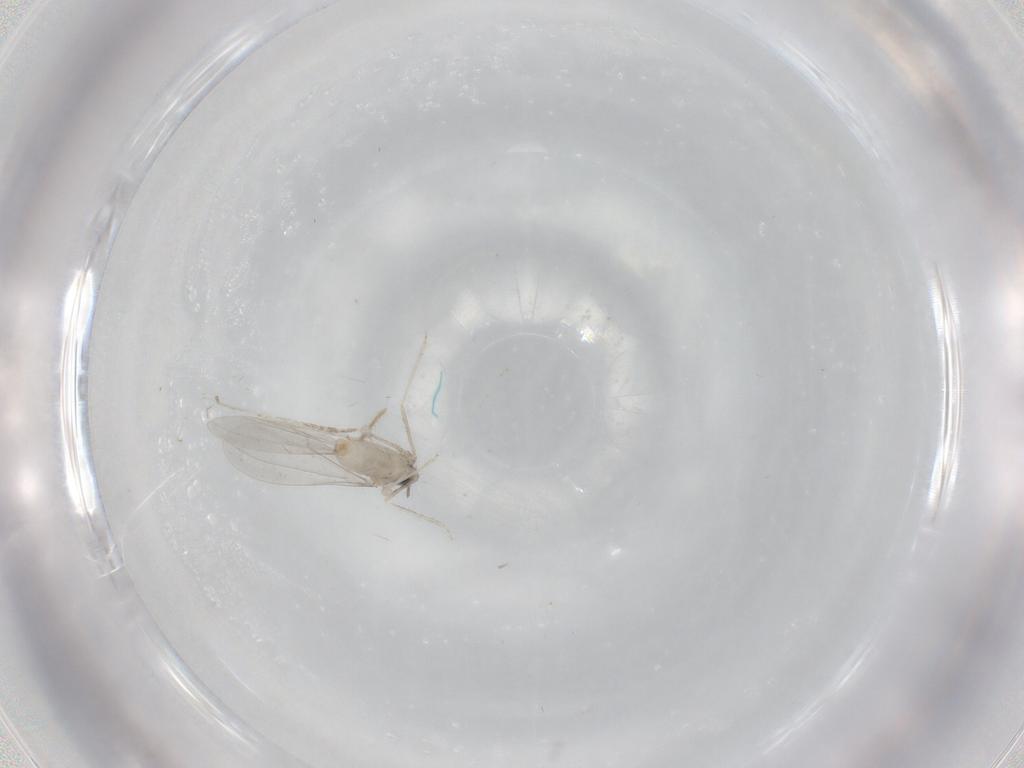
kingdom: Animalia
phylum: Arthropoda
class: Insecta
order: Diptera
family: Chironomidae
